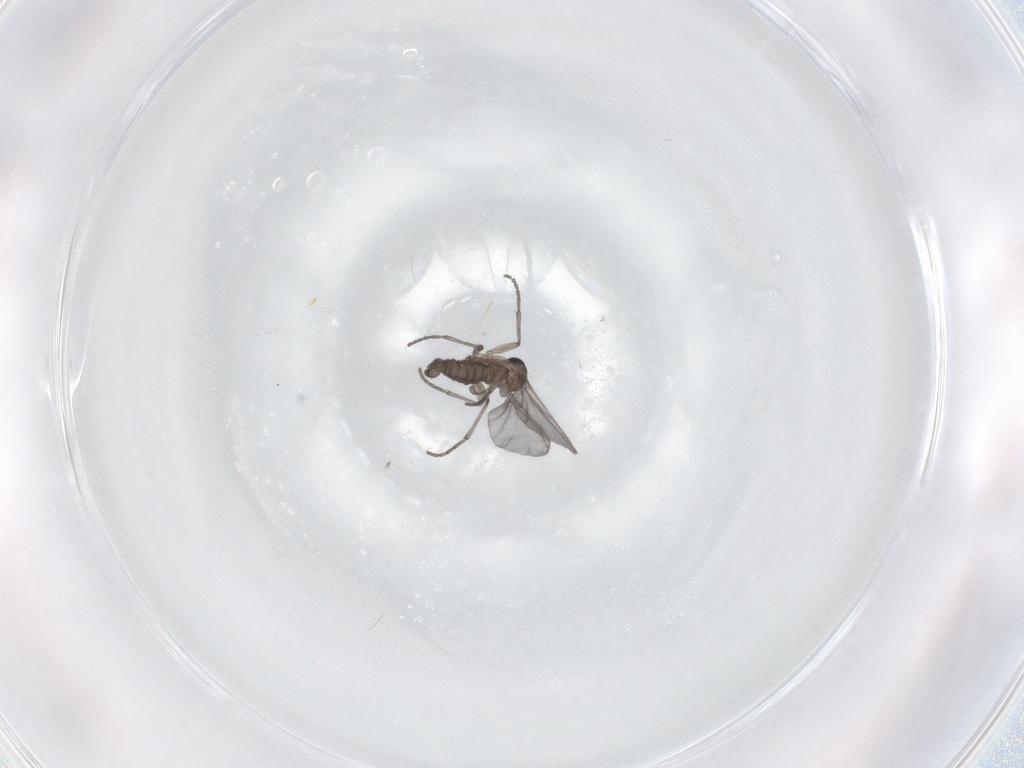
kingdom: Animalia
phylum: Arthropoda
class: Insecta
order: Diptera
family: Sciaridae
